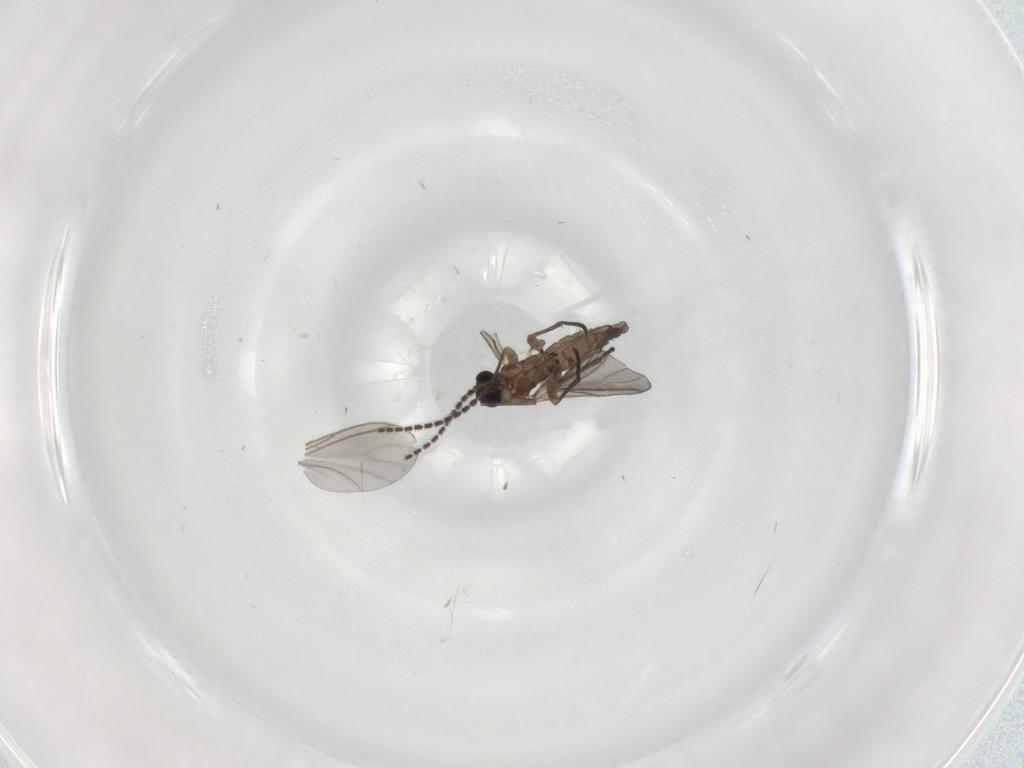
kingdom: Animalia
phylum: Arthropoda
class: Insecta
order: Diptera
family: Sciaridae
